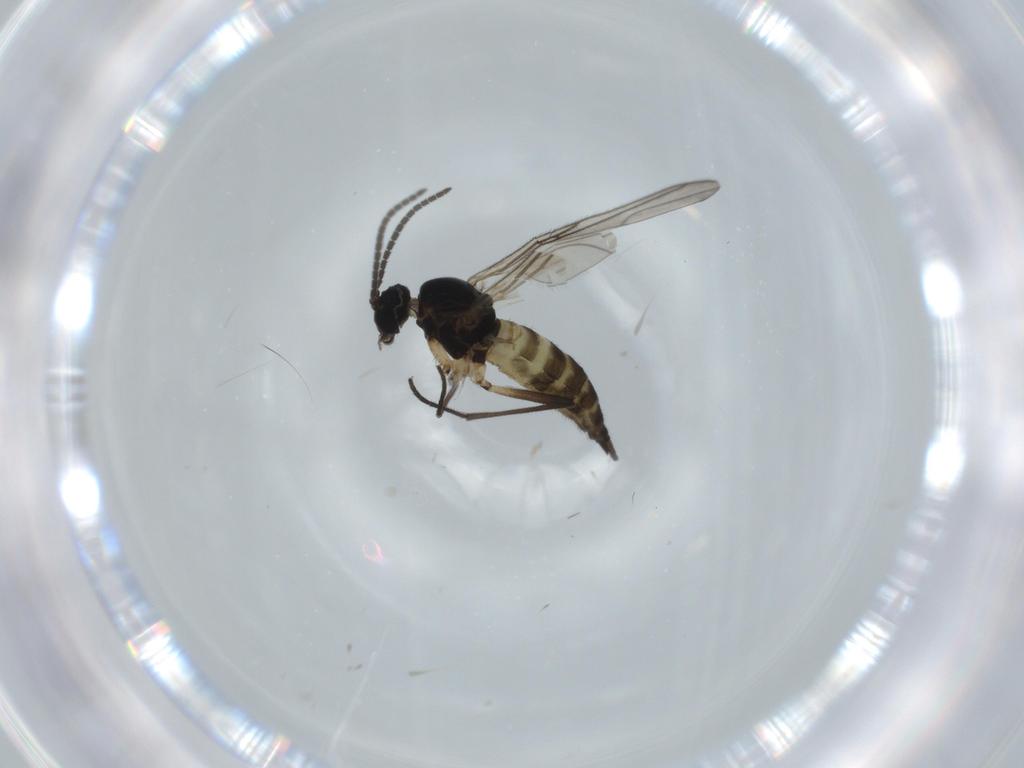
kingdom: Animalia
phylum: Arthropoda
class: Insecta
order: Diptera
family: Sciaridae
